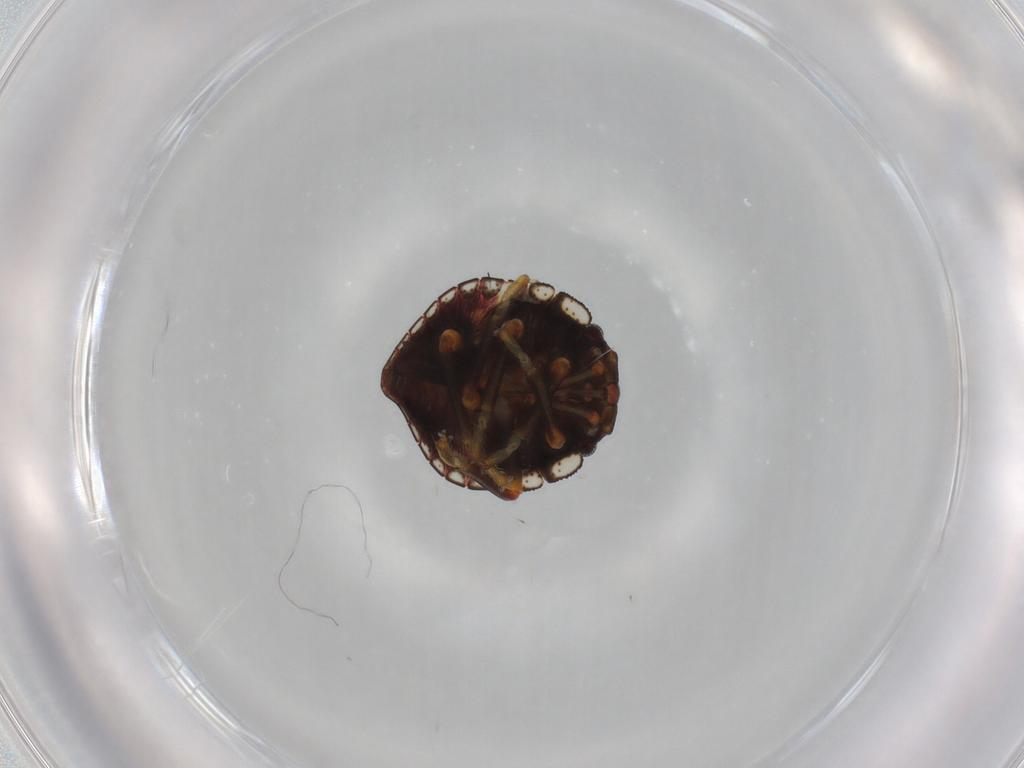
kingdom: Animalia
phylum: Arthropoda
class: Insecta
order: Hemiptera
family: Pentatomidae
